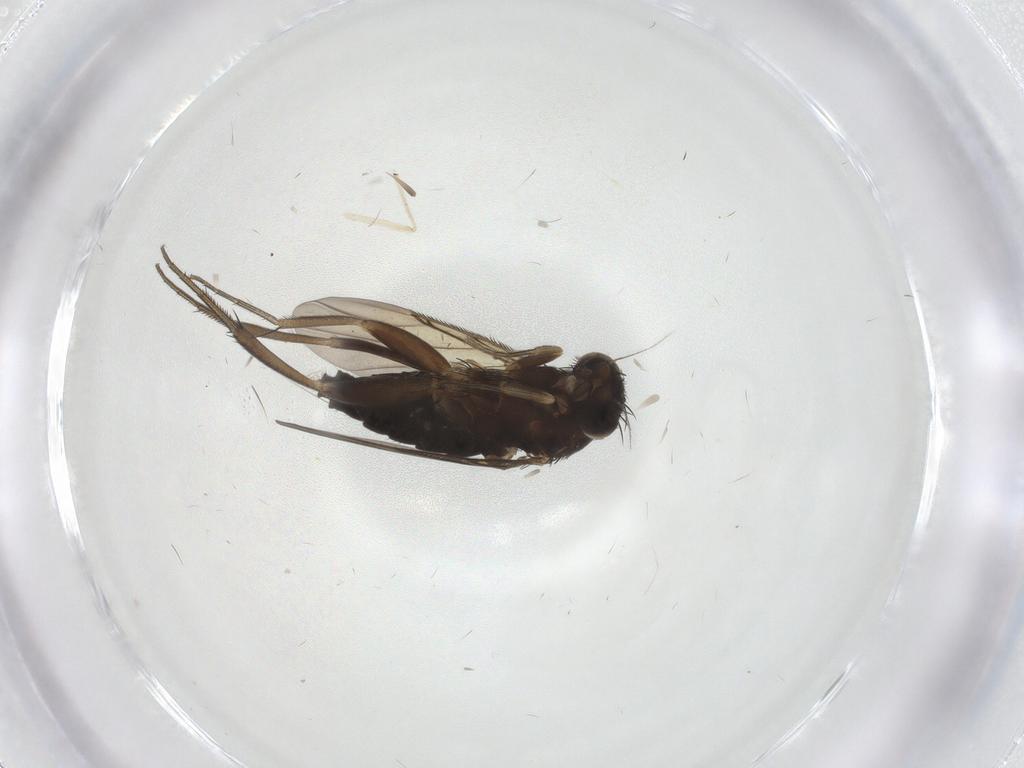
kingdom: Animalia
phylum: Arthropoda
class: Insecta
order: Diptera
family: Phoridae
